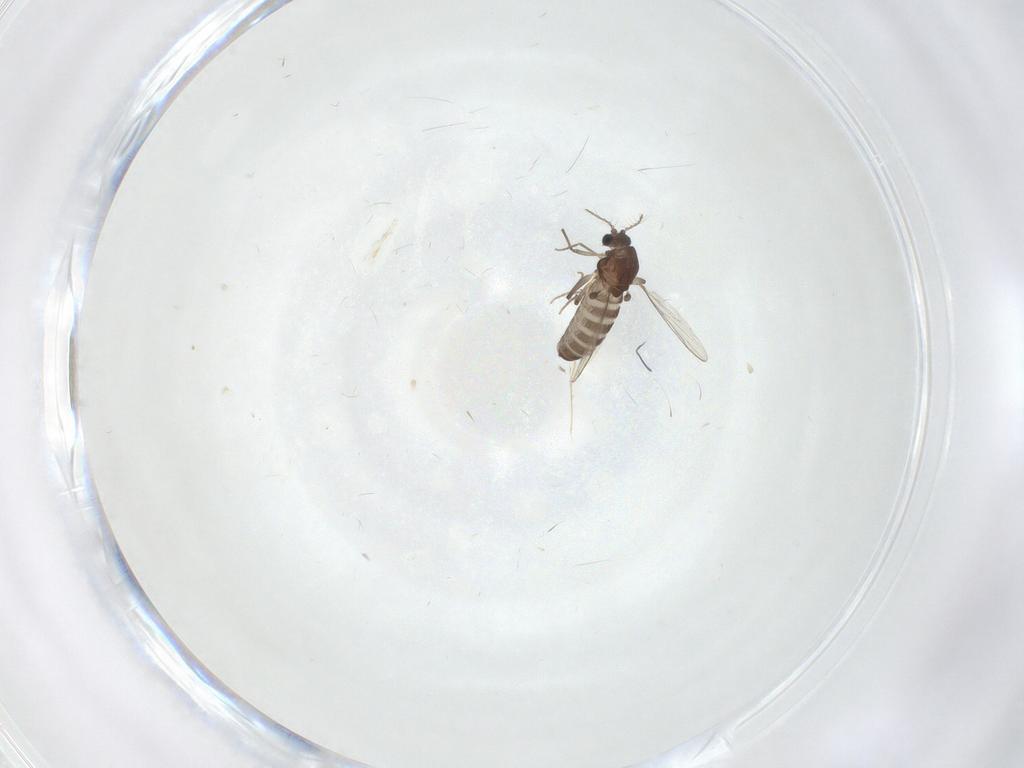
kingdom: Animalia
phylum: Arthropoda
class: Insecta
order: Diptera
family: Chironomidae
